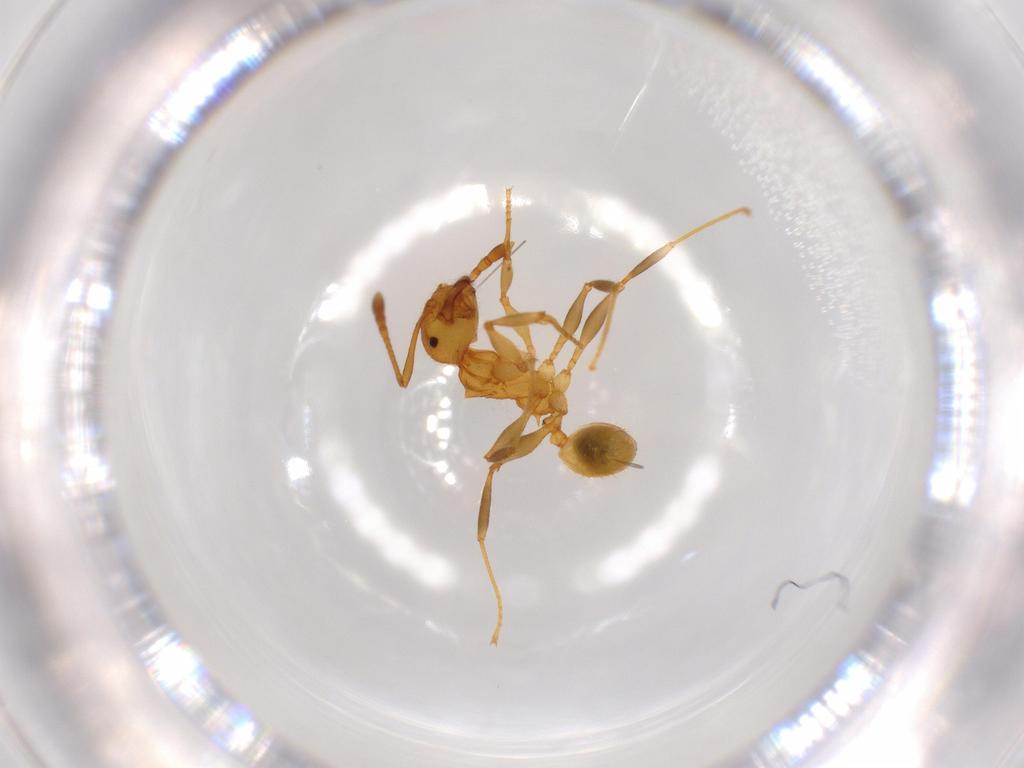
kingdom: Animalia
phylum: Arthropoda
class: Insecta
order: Hymenoptera
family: Formicidae
